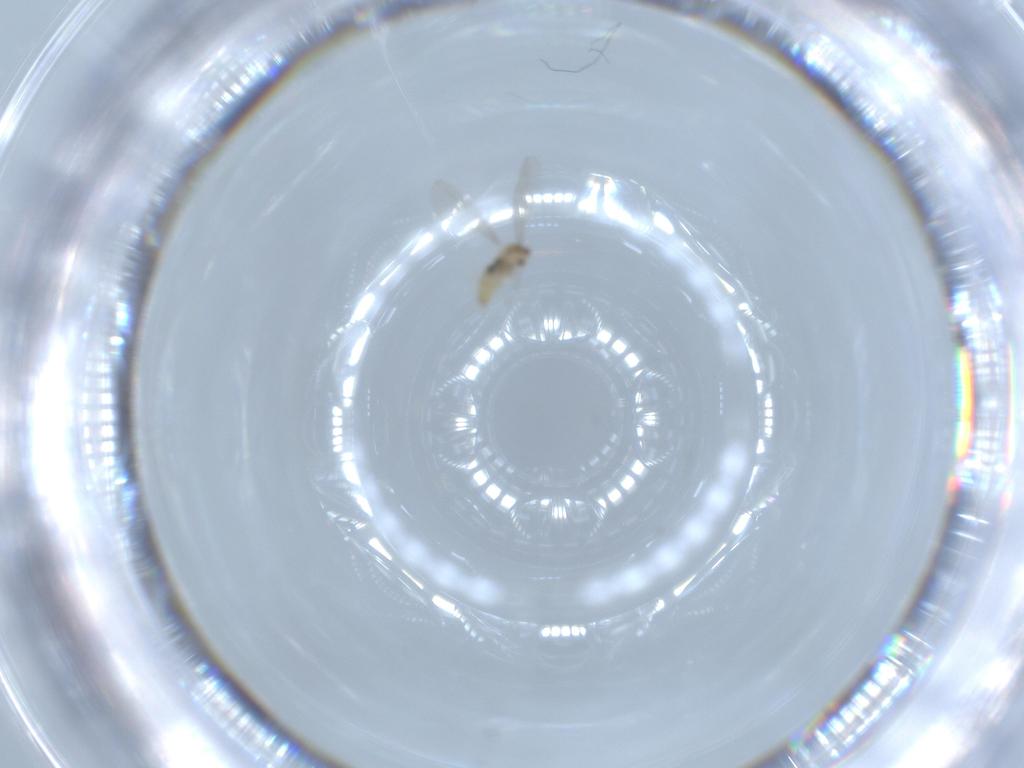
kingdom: Animalia
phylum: Arthropoda
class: Insecta
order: Diptera
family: Cecidomyiidae
